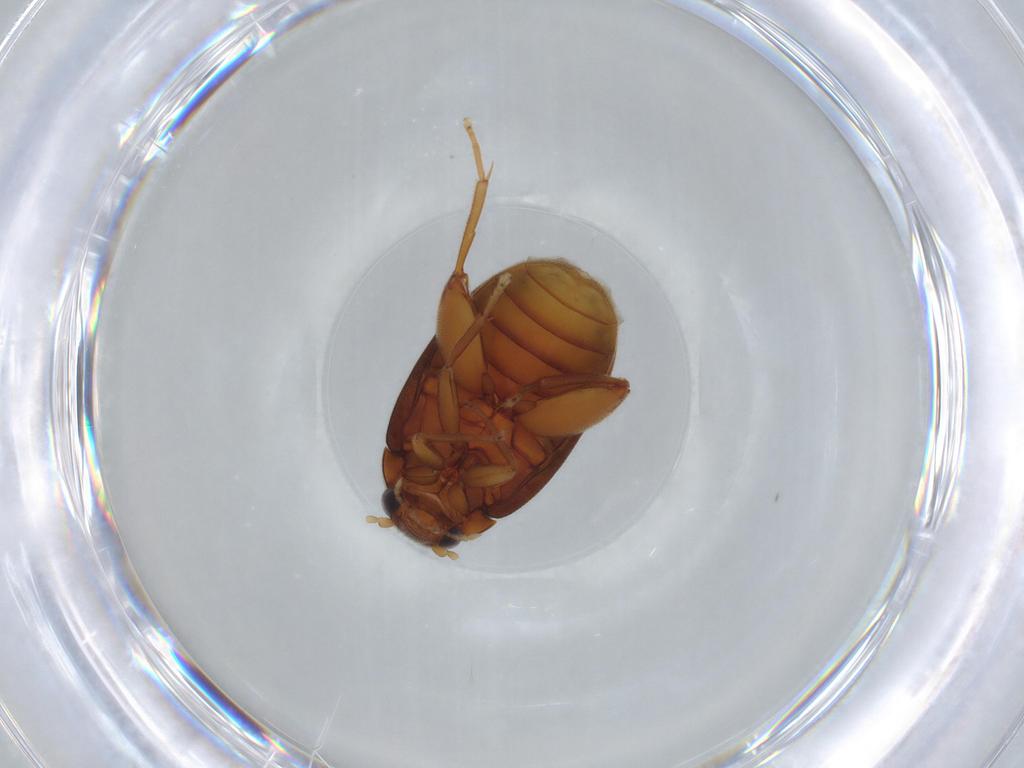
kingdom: Animalia
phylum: Arthropoda
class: Insecta
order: Coleoptera
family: Scirtidae
